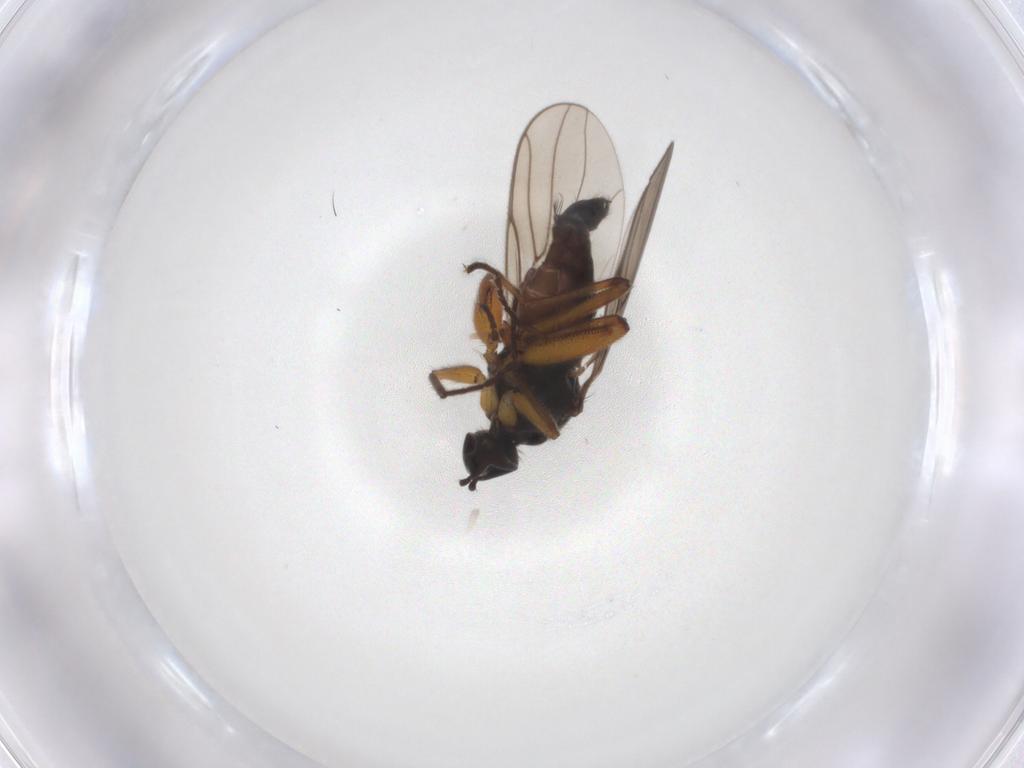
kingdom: Animalia
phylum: Arthropoda
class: Insecta
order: Diptera
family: Hybotidae
